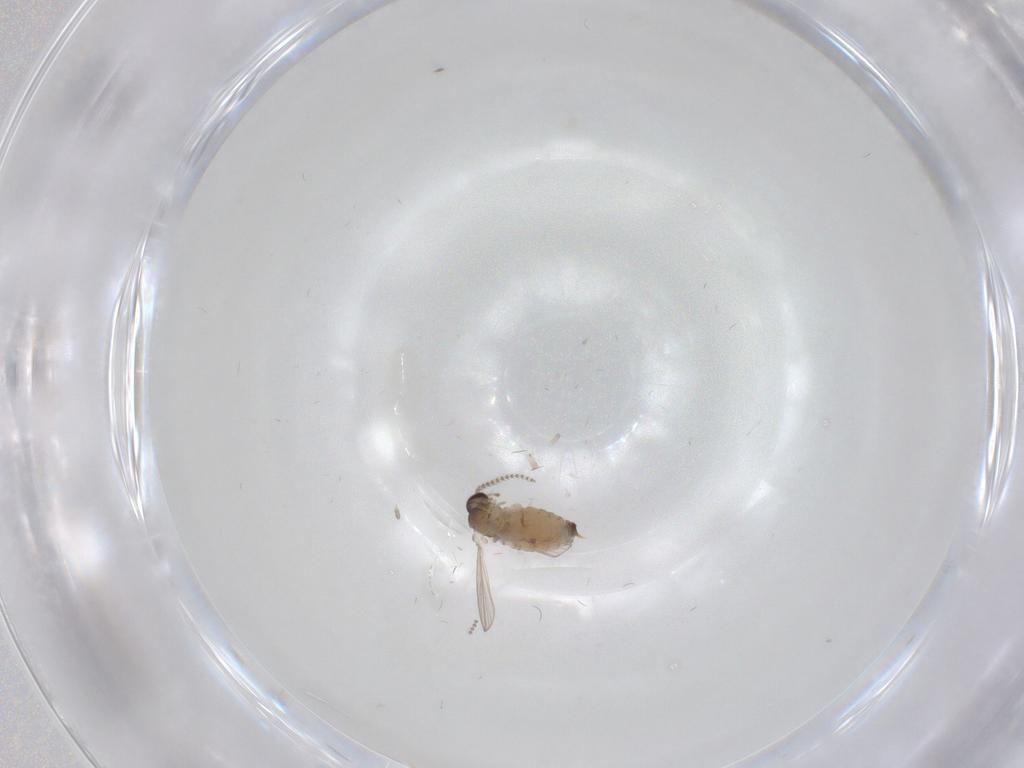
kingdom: Animalia
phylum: Arthropoda
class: Insecta
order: Diptera
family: Psychodidae
